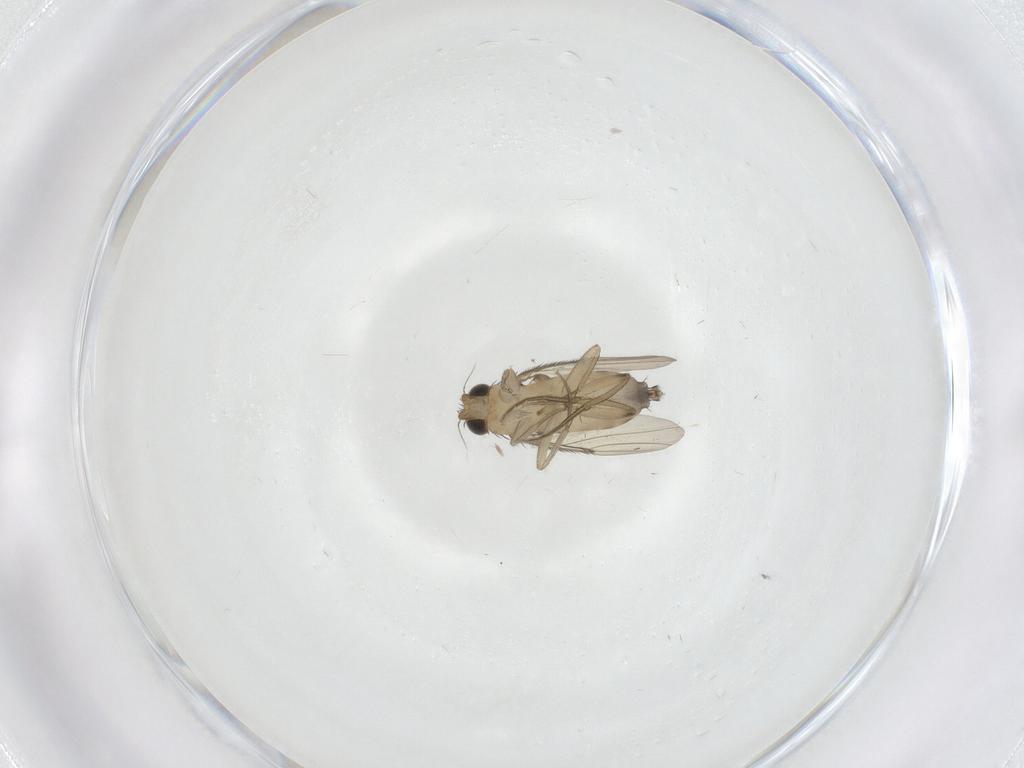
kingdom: Animalia
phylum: Arthropoda
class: Insecta
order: Diptera
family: Phoridae
